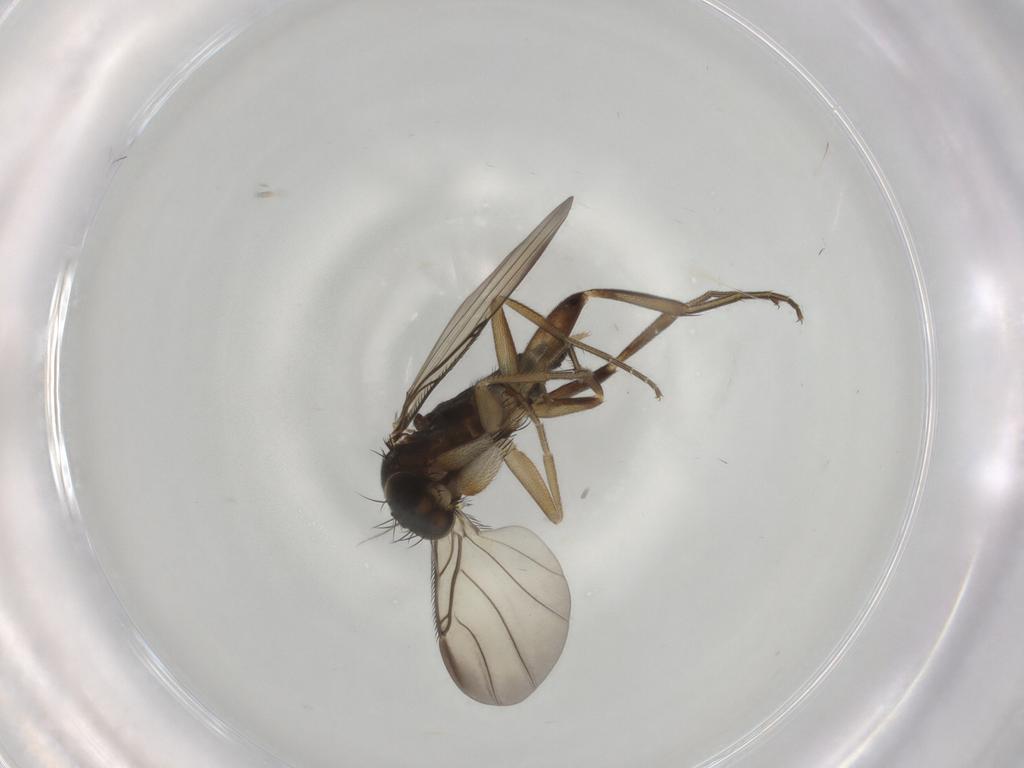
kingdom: Animalia
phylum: Arthropoda
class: Insecta
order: Diptera
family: Phoridae
